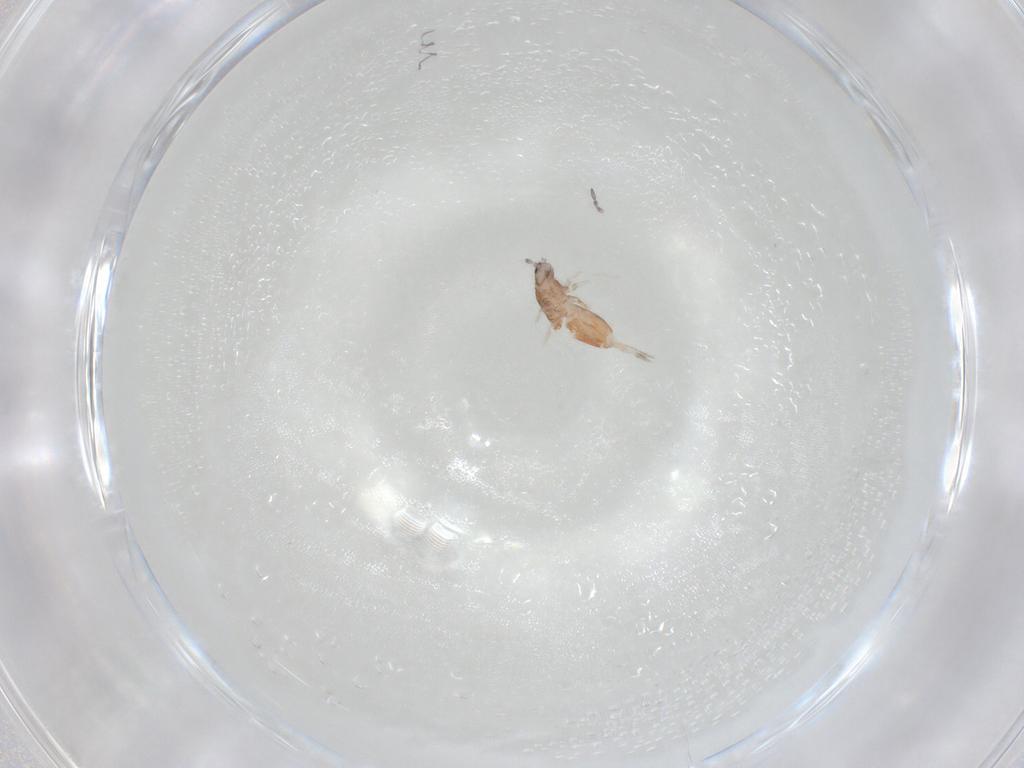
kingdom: Animalia
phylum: Arthropoda
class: Collembola
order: Entomobryomorpha
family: Entomobryidae
